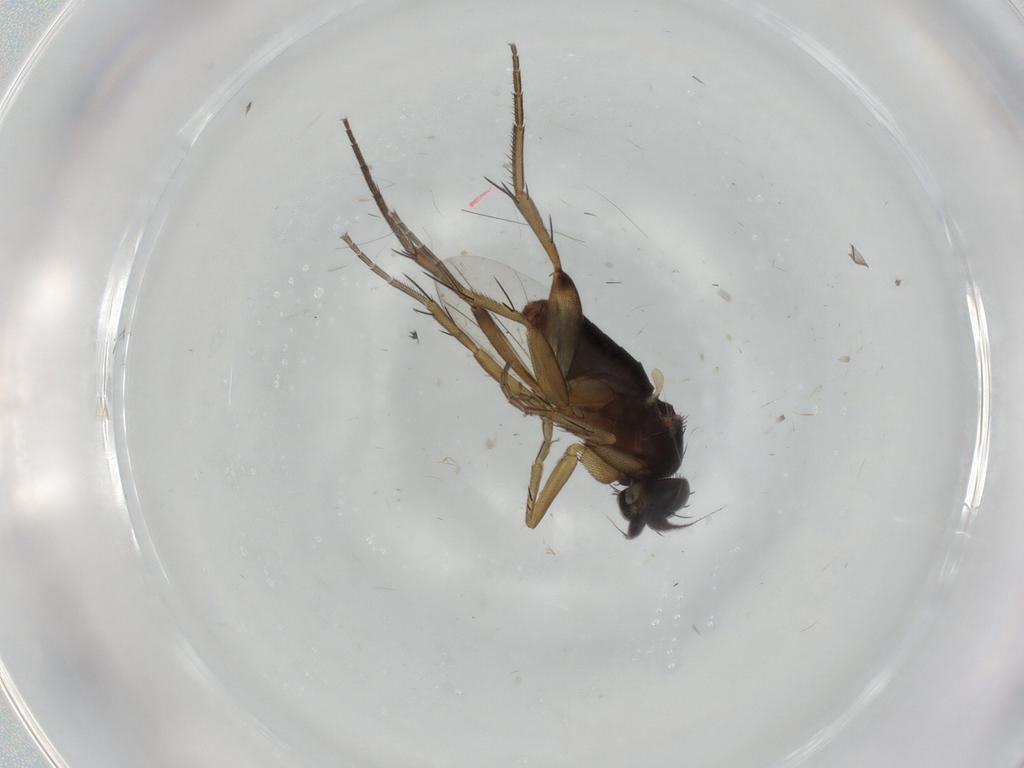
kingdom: Animalia
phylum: Arthropoda
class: Insecta
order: Diptera
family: Phoridae
